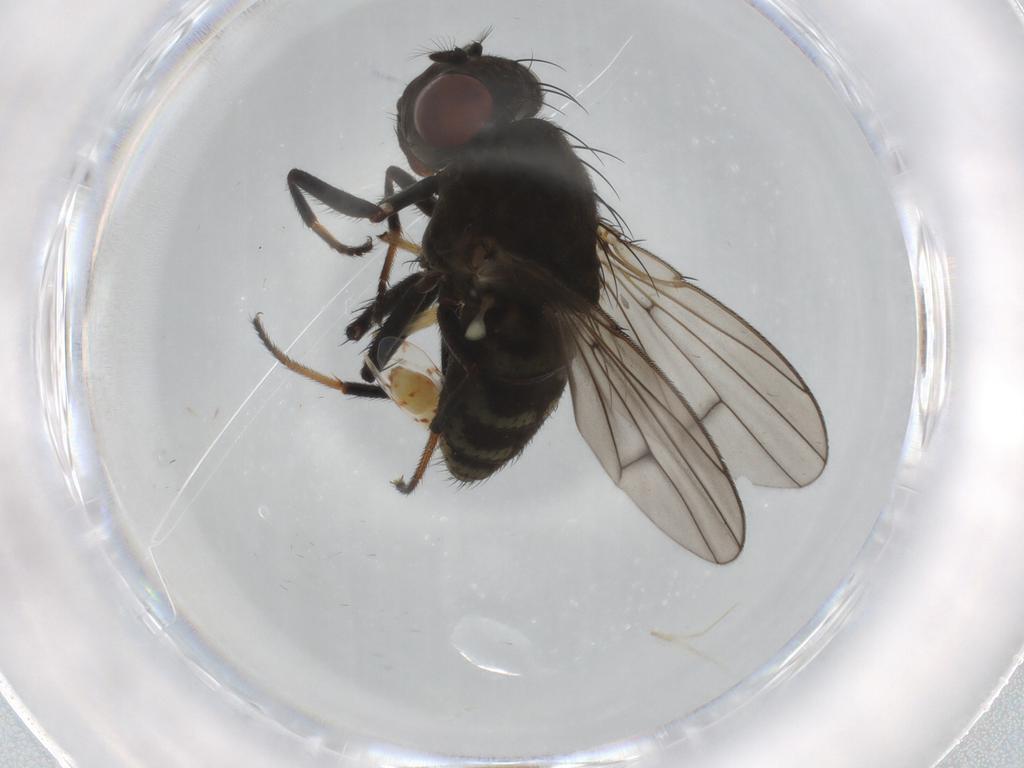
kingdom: Animalia
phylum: Arthropoda
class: Insecta
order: Diptera
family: Ephydridae
